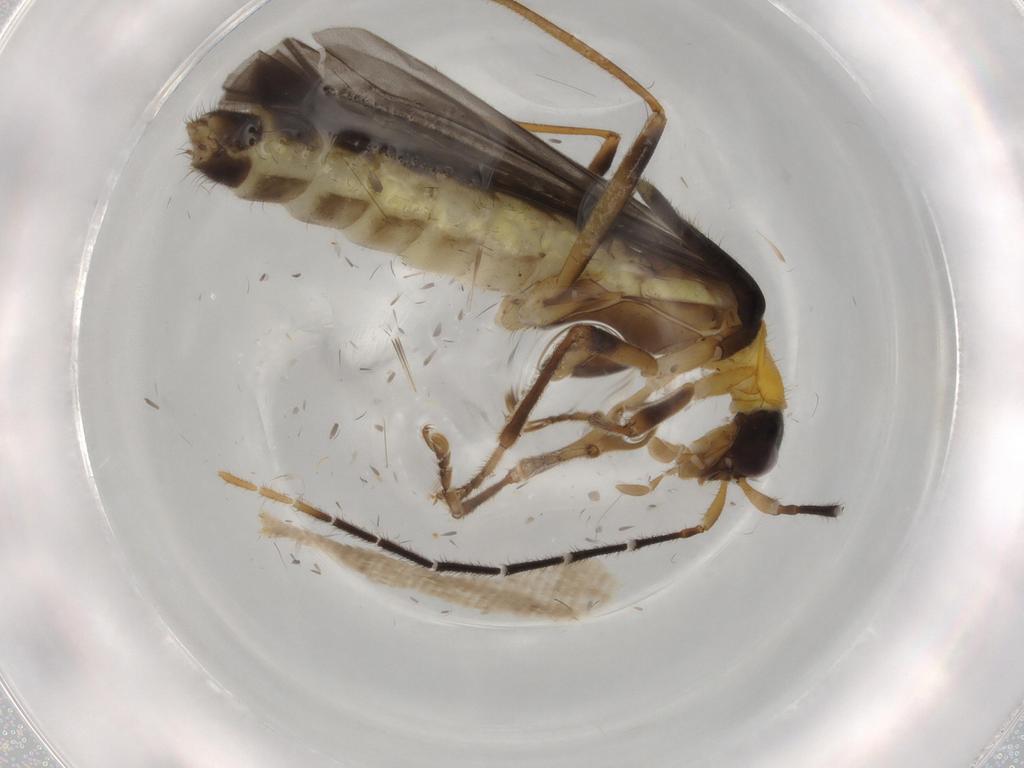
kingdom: Animalia
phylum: Arthropoda
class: Insecta
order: Coleoptera
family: Cantharidae
